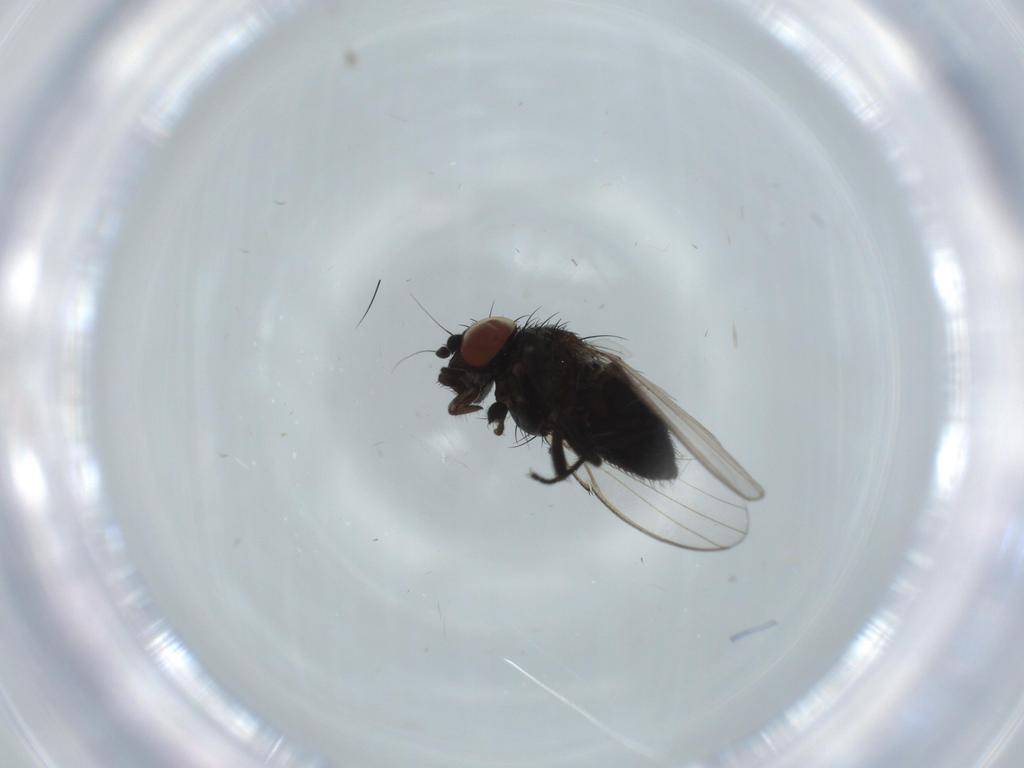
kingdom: Animalia
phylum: Arthropoda
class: Insecta
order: Diptera
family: Milichiidae
